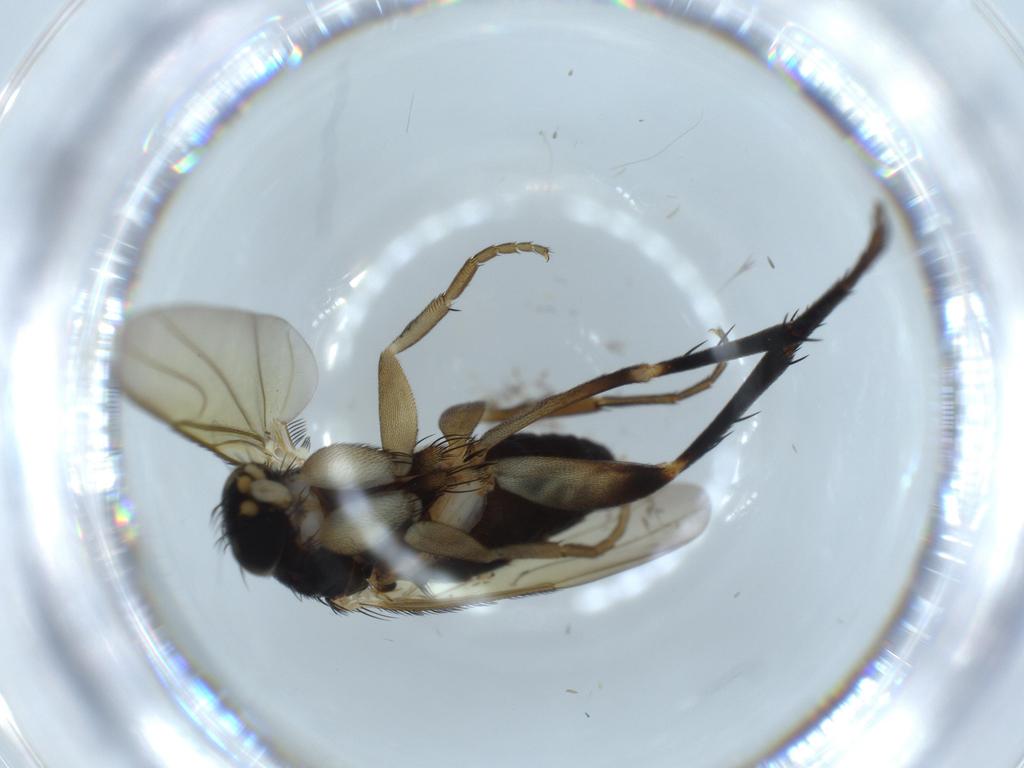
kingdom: Animalia
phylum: Arthropoda
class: Insecta
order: Diptera
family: Phoridae
